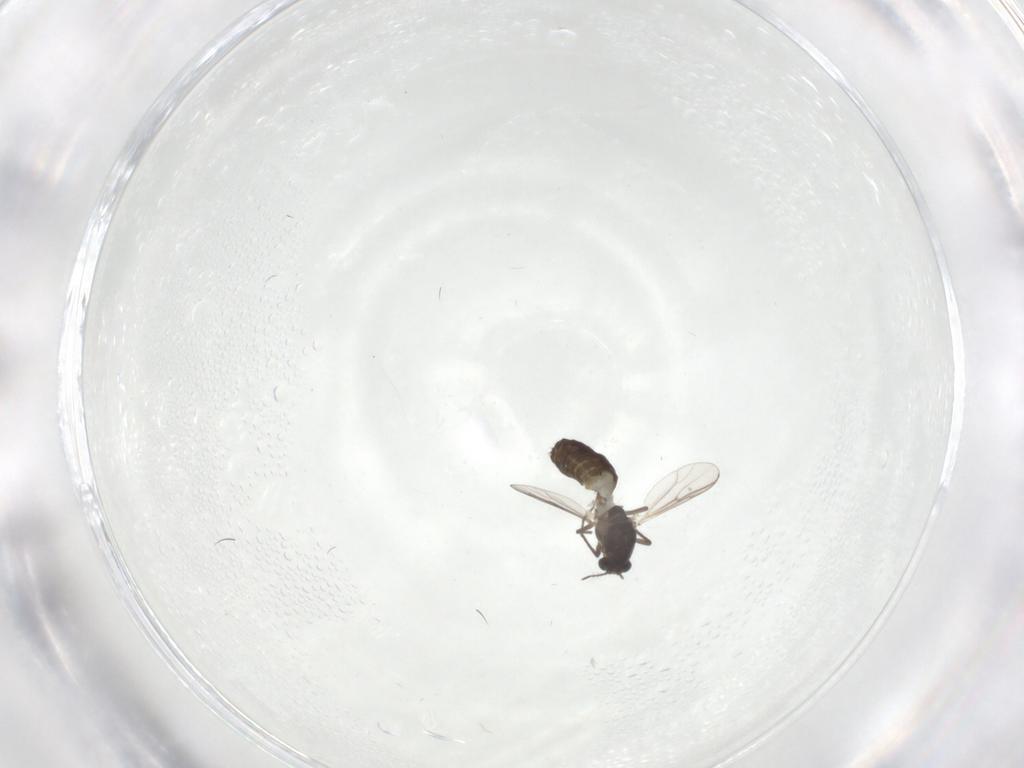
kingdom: Animalia
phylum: Arthropoda
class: Insecta
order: Diptera
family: Chironomidae
